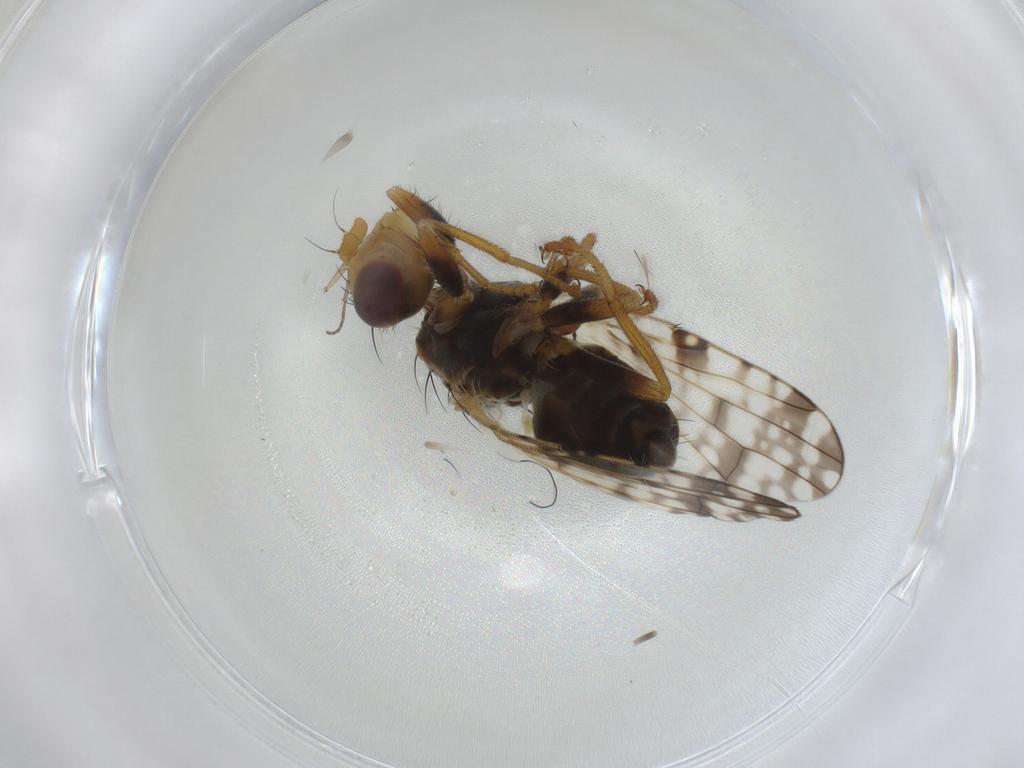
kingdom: Animalia
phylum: Arthropoda
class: Insecta
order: Diptera
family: Tephritidae
